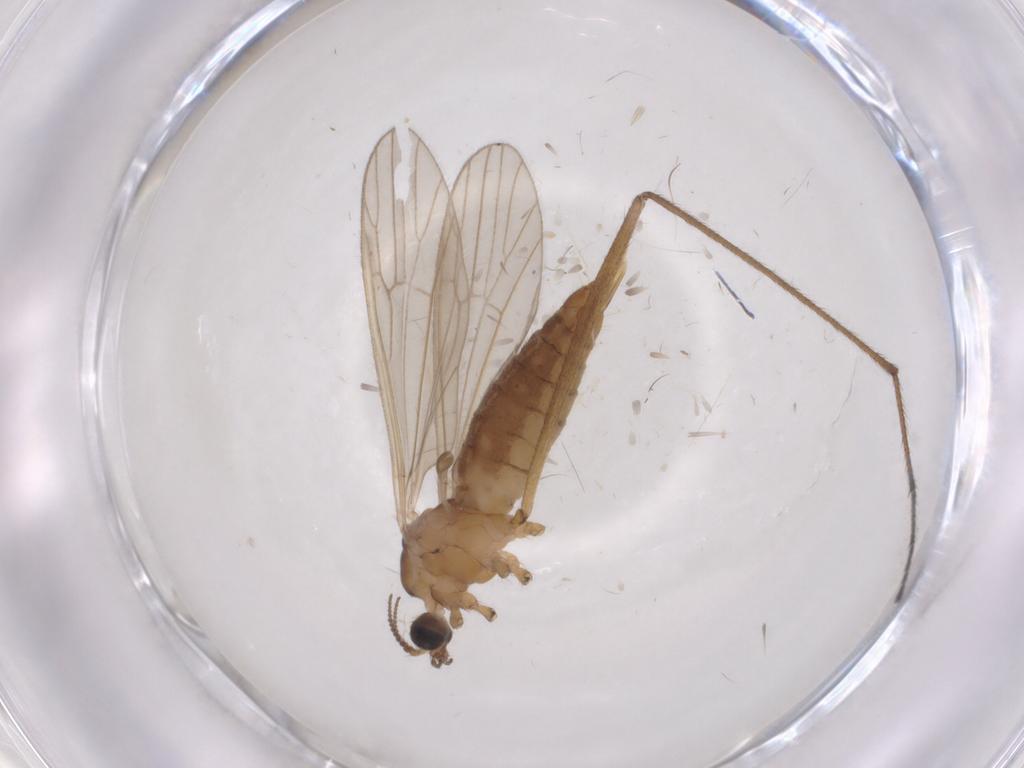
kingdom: Animalia
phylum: Arthropoda
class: Insecta
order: Diptera
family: Limoniidae
